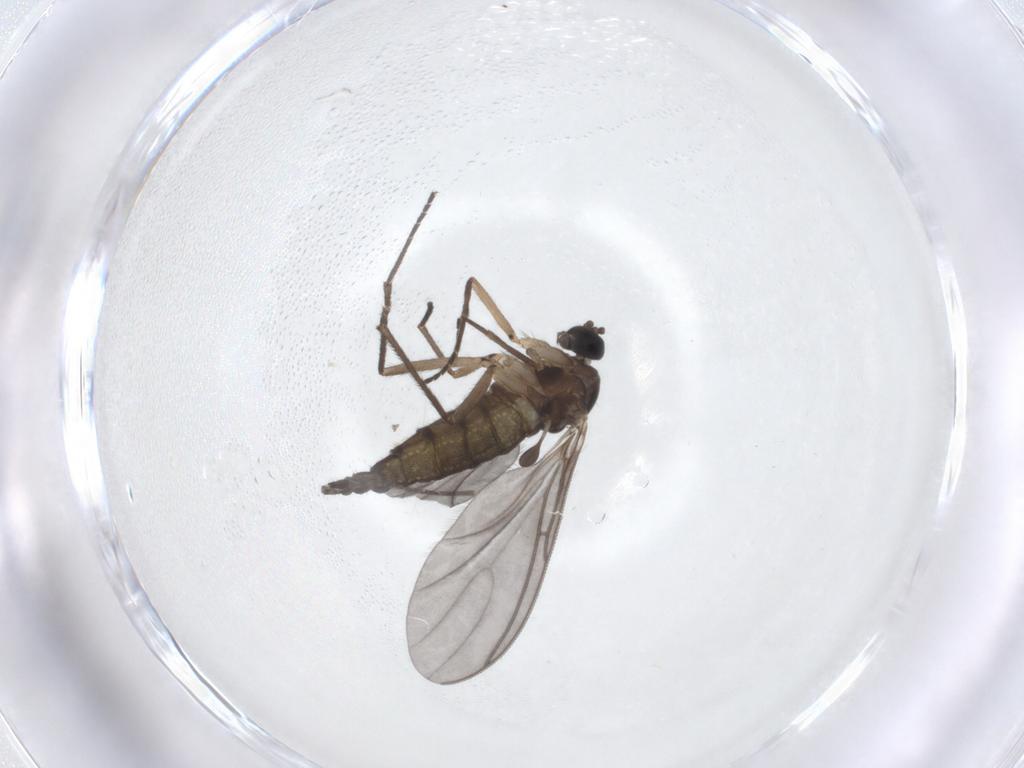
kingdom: Animalia
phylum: Arthropoda
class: Insecta
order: Diptera
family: Sciaridae
